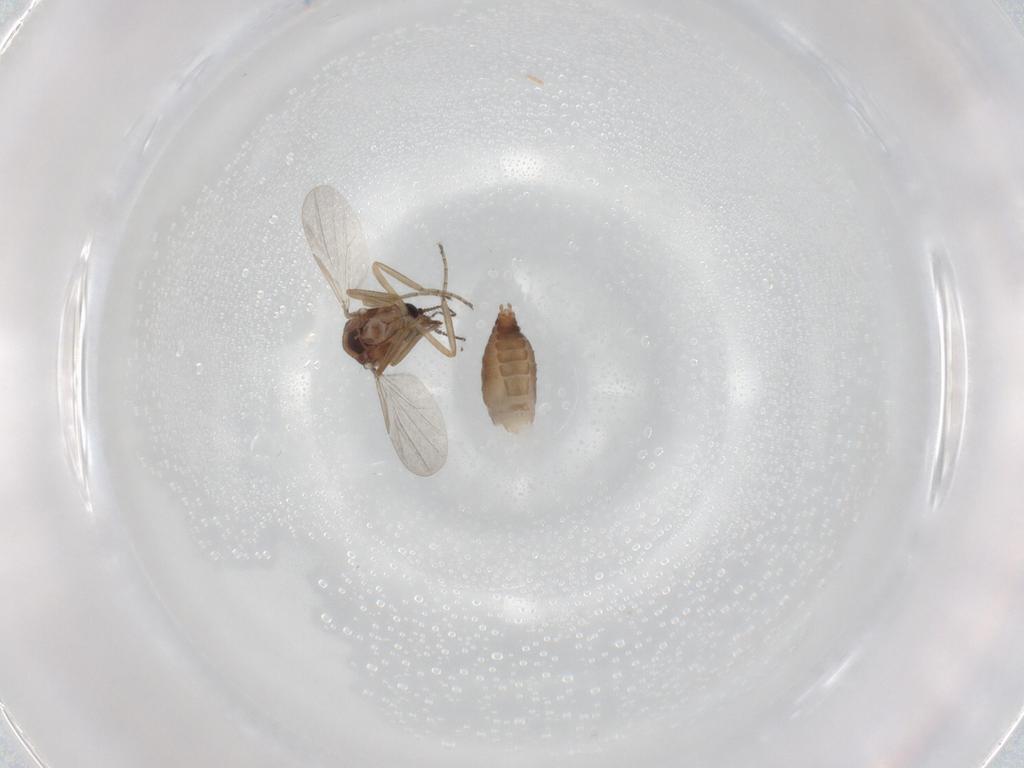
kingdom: Animalia
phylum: Arthropoda
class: Insecta
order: Diptera
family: Ceratopogonidae
